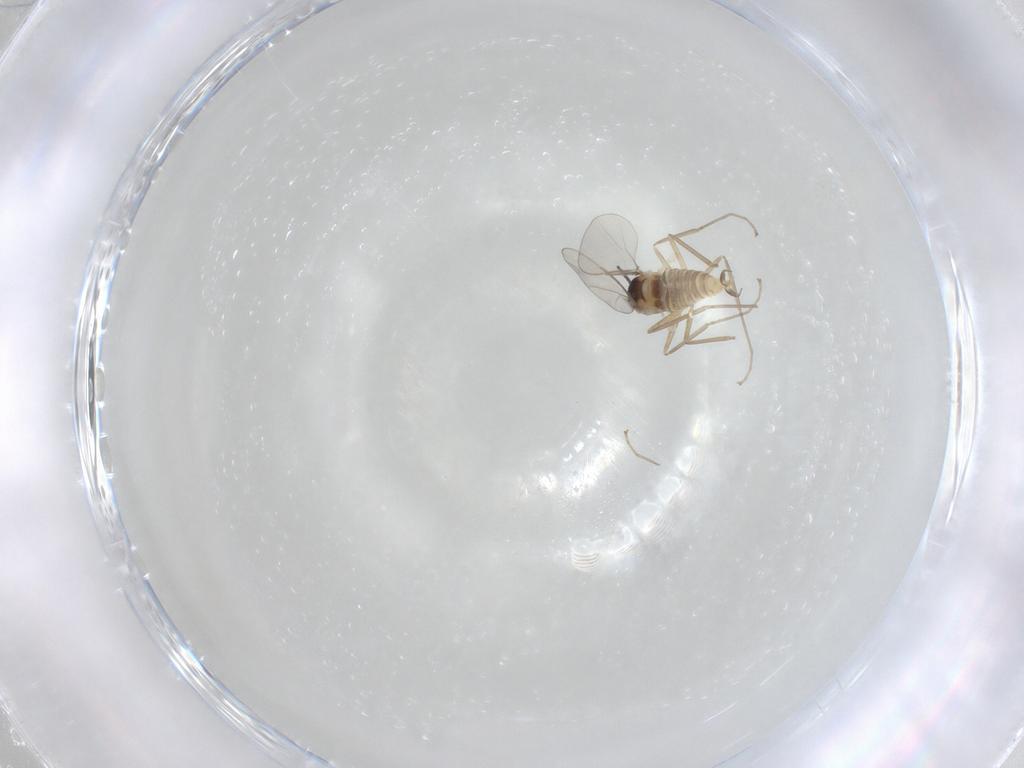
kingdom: Animalia
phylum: Arthropoda
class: Insecta
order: Diptera
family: Cecidomyiidae
